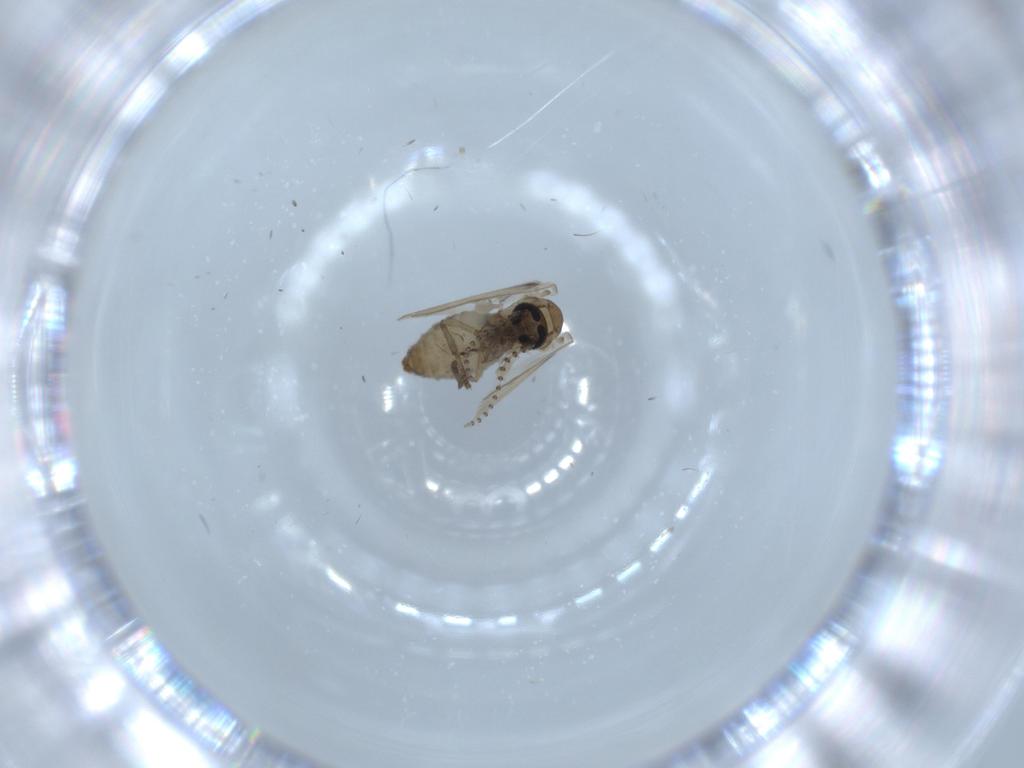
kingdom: Animalia
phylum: Arthropoda
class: Insecta
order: Diptera
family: Psychodidae
